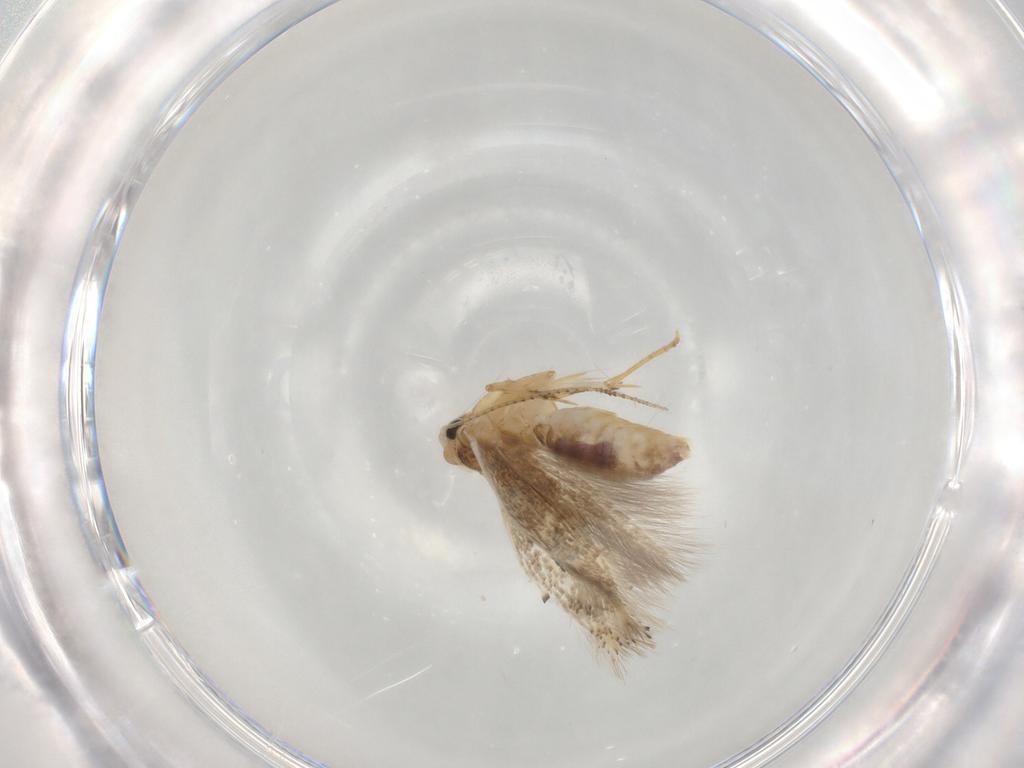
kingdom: Animalia
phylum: Arthropoda
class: Insecta
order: Lepidoptera
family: Bucculatricidae
